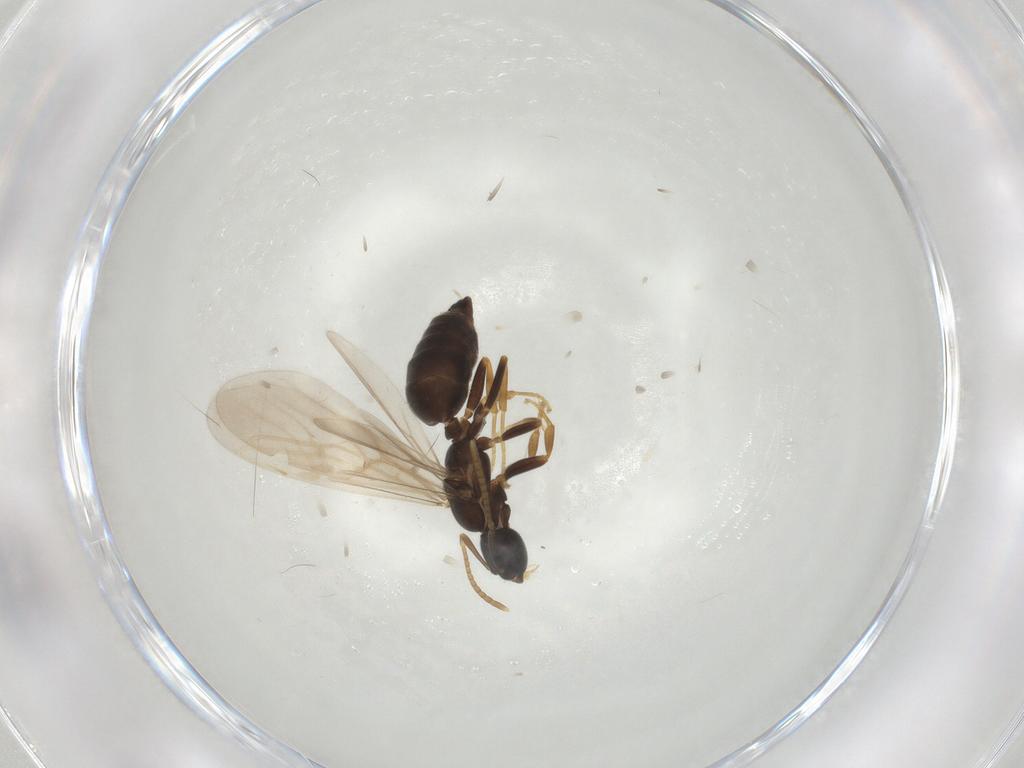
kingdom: Animalia
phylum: Arthropoda
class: Insecta
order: Hymenoptera
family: Formicidae
